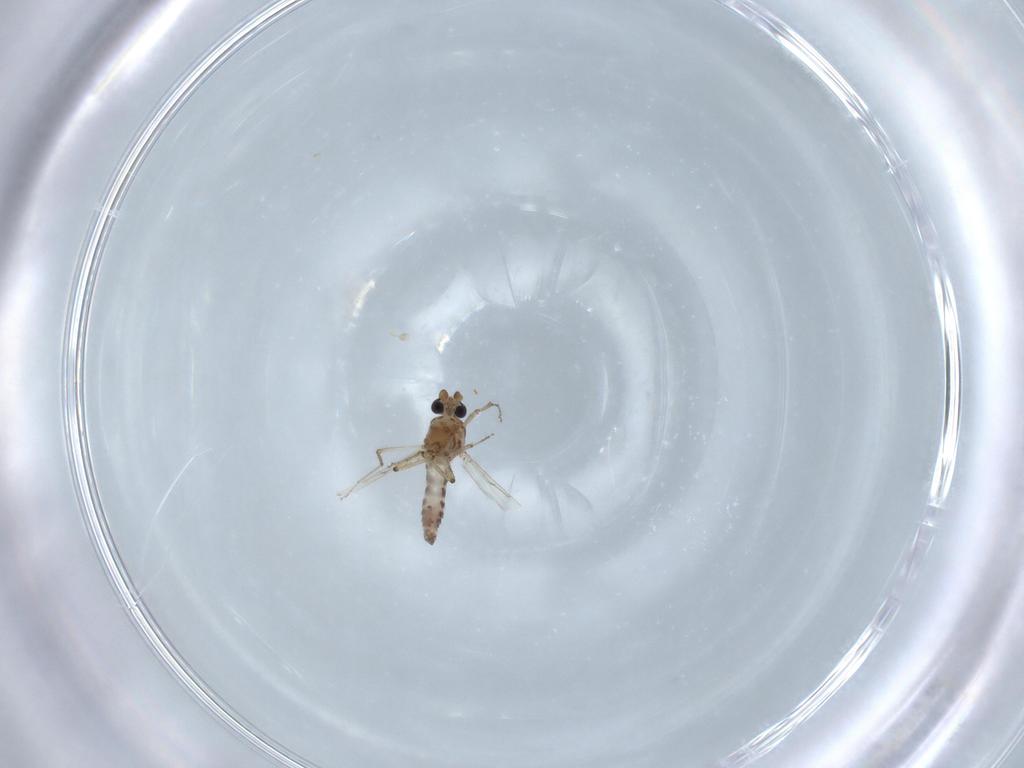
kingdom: Animalia
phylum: Arthropoda
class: Insecta
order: Diptera
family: Ceratopogonidae
